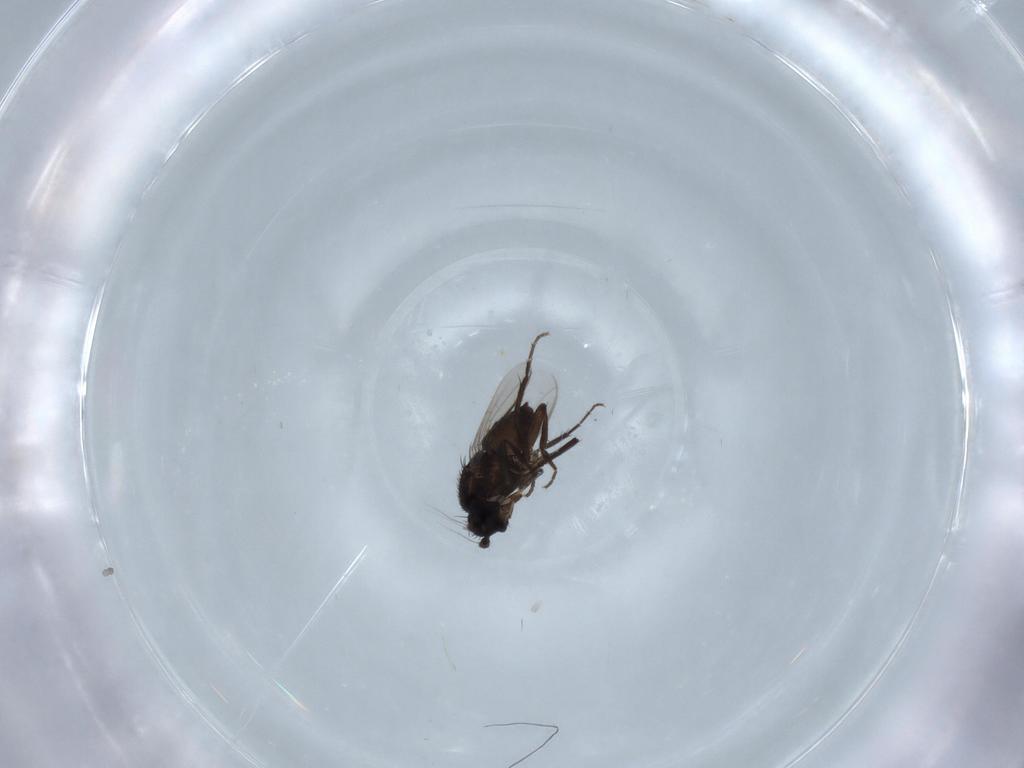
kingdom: Animalia
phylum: Arthropoda
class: Insecta
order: Diptera
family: Sphaeroceridae
